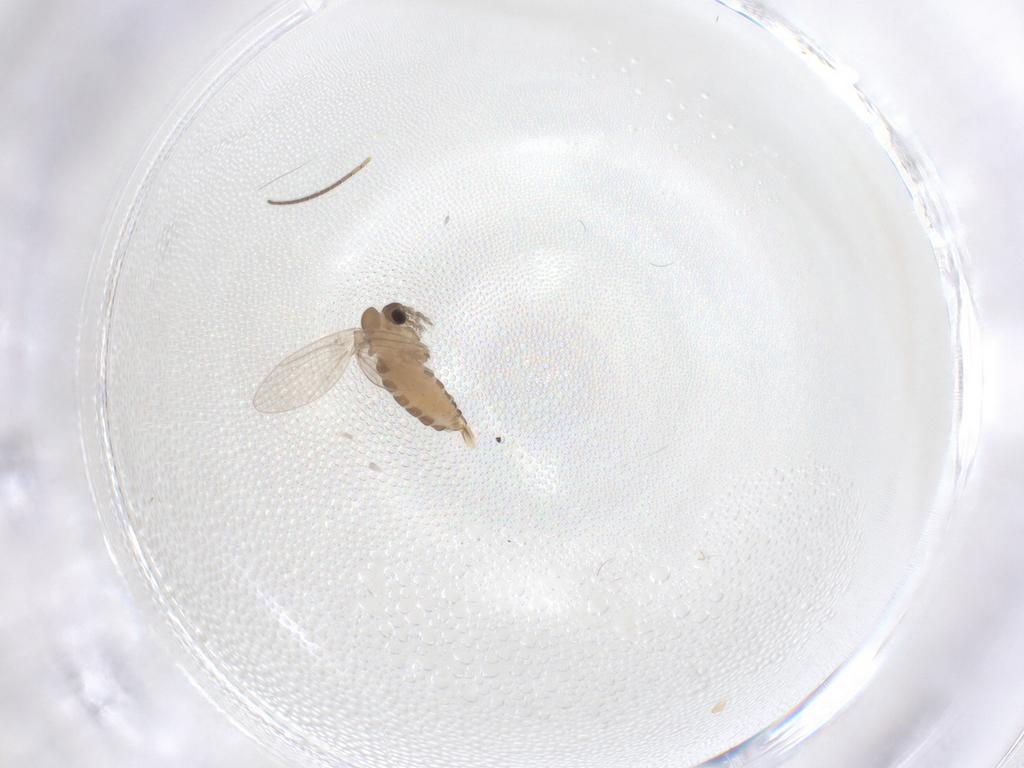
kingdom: Animalia
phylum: Arthropoda
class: Insecta
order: Diptera
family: Sciaridae
